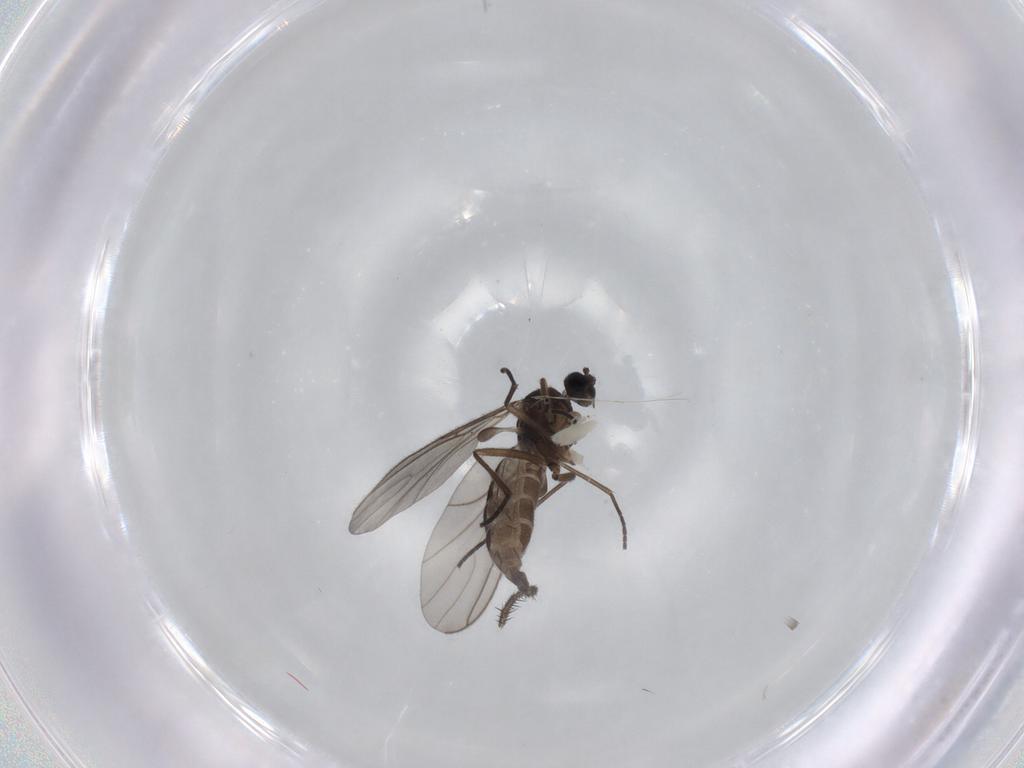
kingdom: Animalia
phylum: Arthropoda
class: Insecta
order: Diptera
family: Cecidomyiidae
